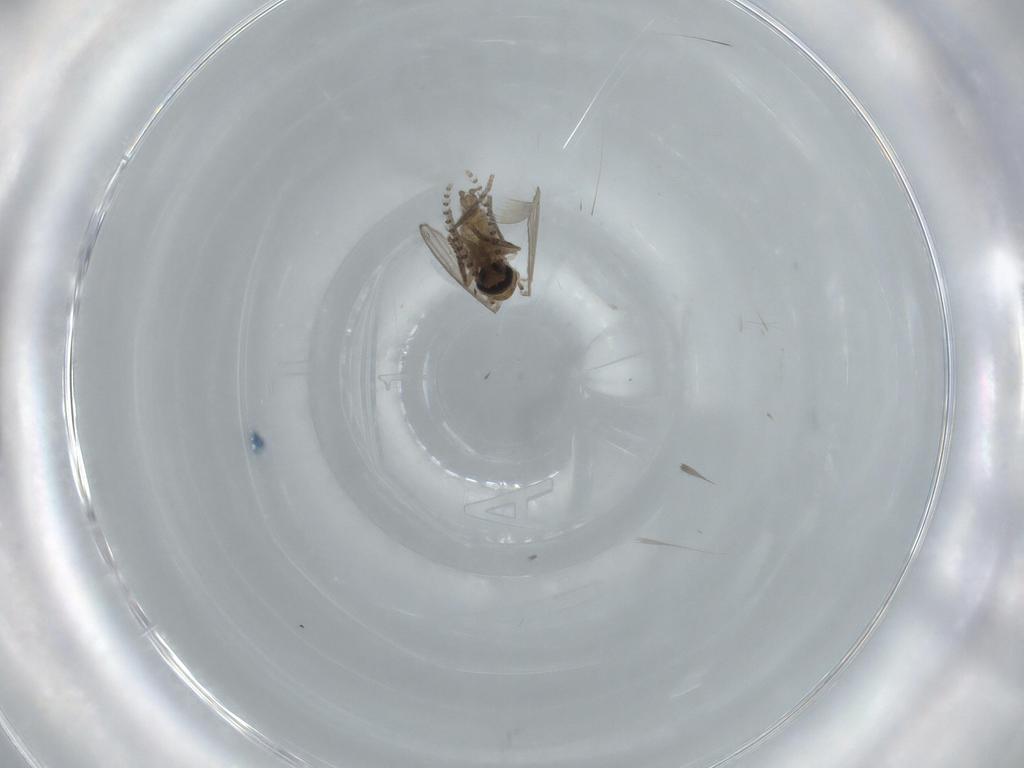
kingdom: Animalia
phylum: Arthropoda
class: Insecta
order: Diptera
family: Psychodidae
